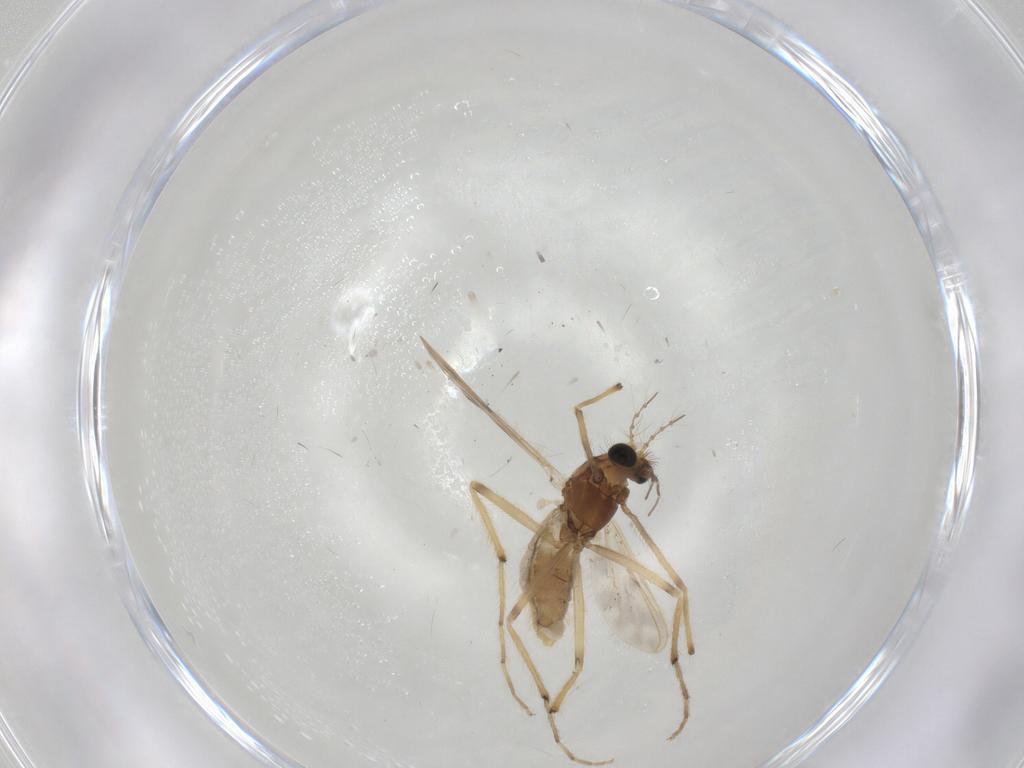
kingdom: Animalia
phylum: Arthropoda
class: Insecta
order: Diptera
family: Chironomidae
